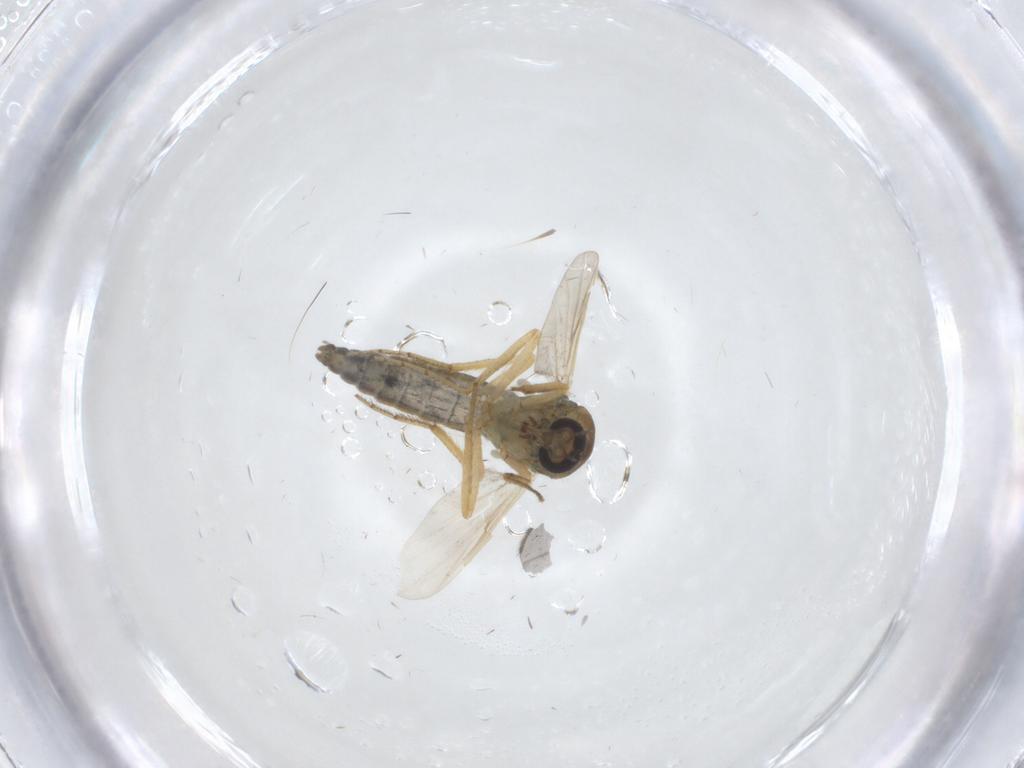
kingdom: Animalia
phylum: Arthropoda
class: Insecta
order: Diptera
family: Ceratopogonidae
